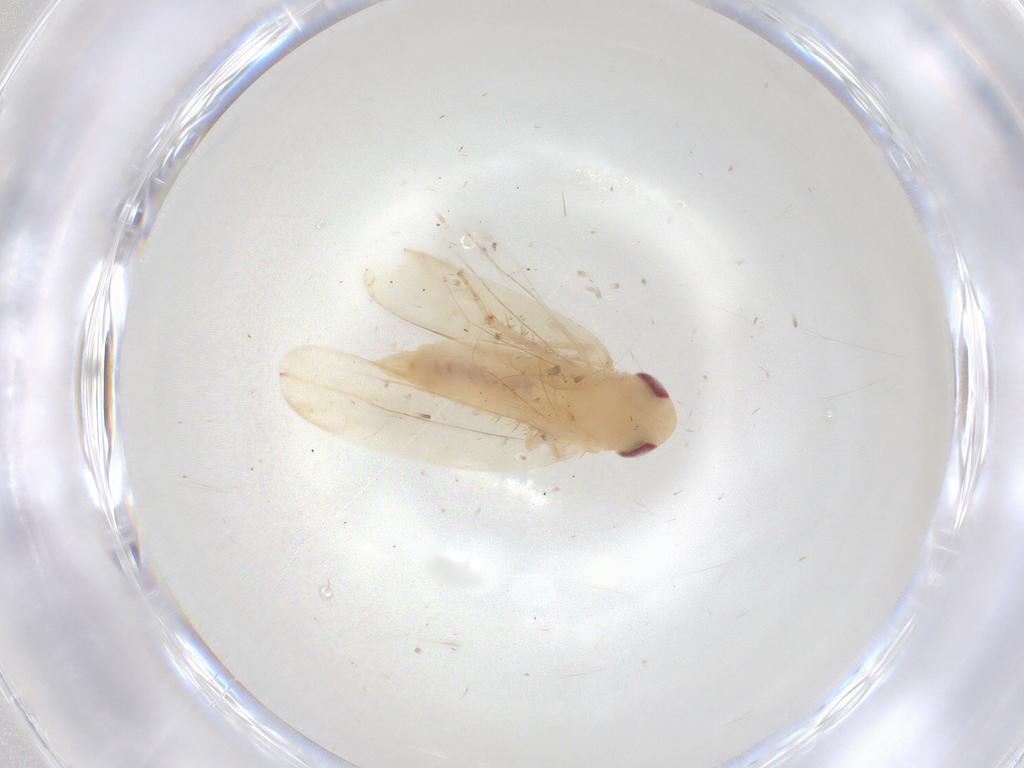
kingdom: Animalia
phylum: Arthropoda
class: Insecta
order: Hemiptera
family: Cicadellidae
